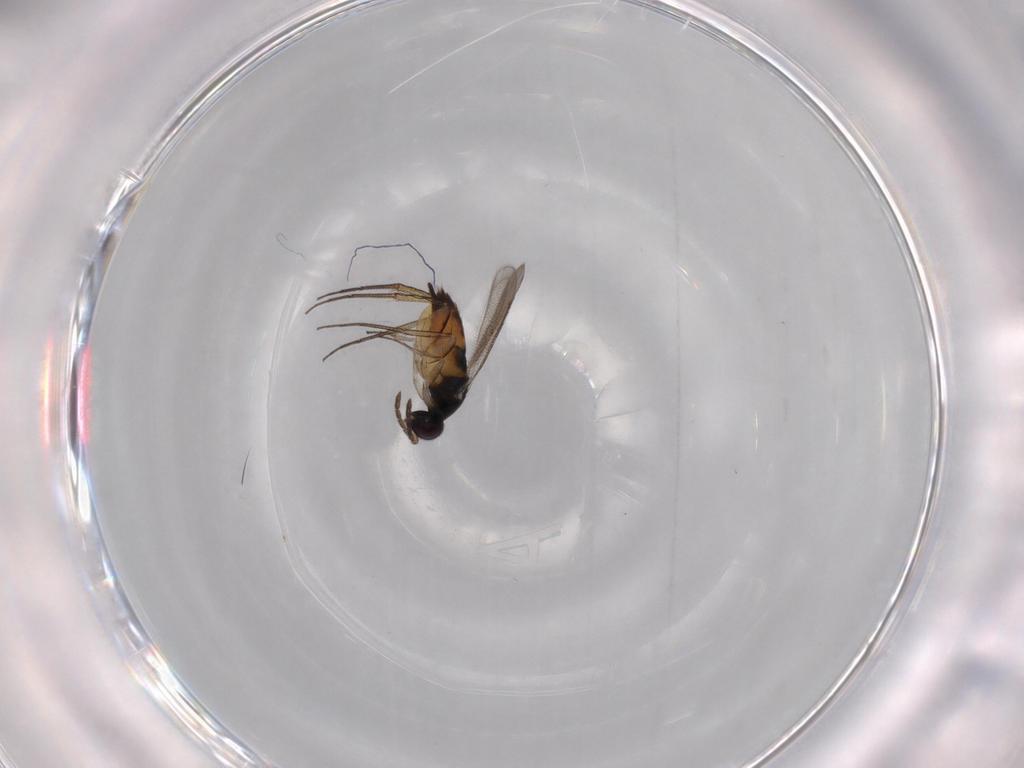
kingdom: Animalia
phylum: Arthropoda
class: Insecta
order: Hymenoptera
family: Eulophidae
